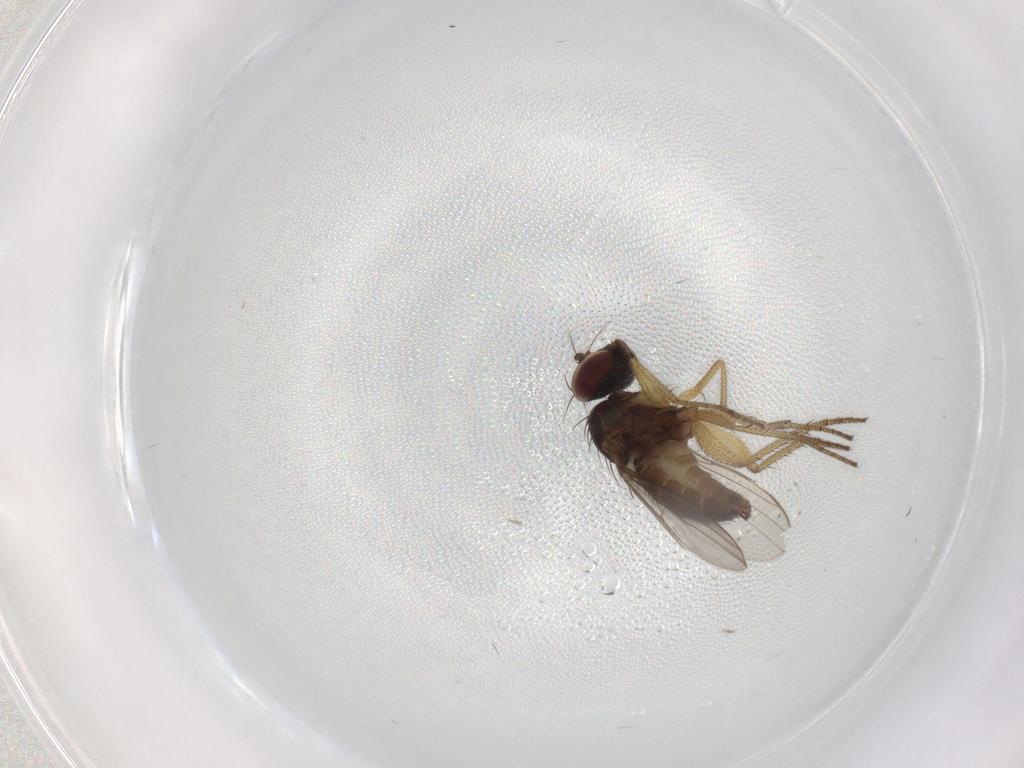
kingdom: Animalia
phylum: Arthropoda
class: Insecta
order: Diptera
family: Dolichopodidae
